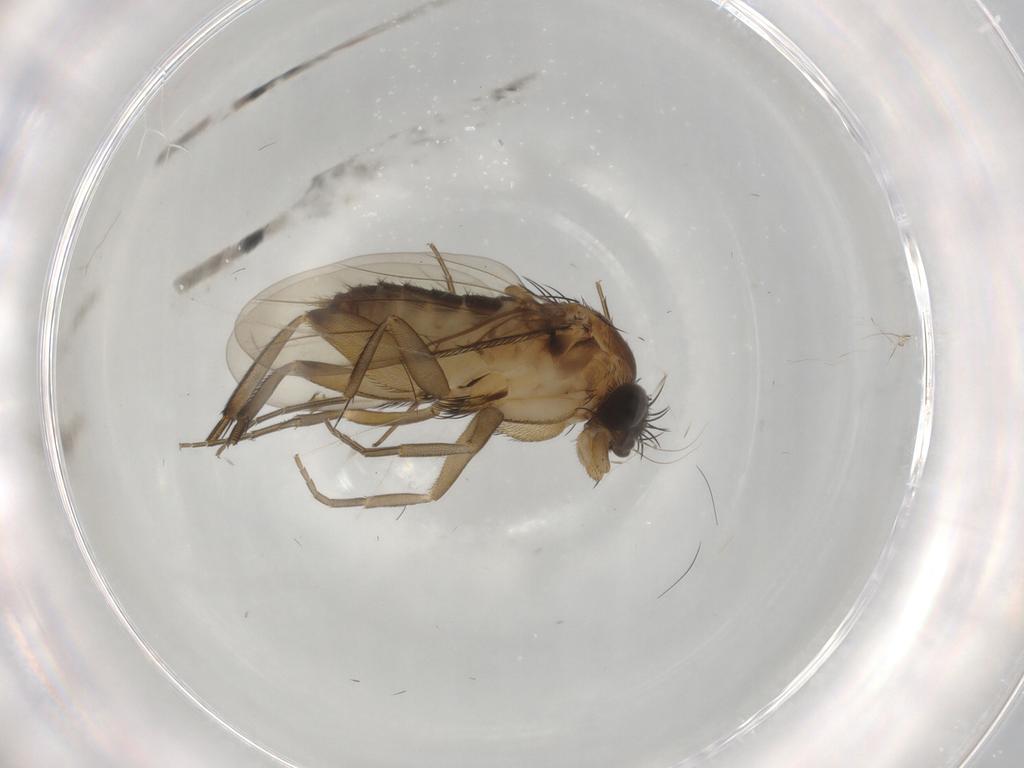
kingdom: Animalia
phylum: Arthropoda
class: Insecta
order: Diptera
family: Phoridae
